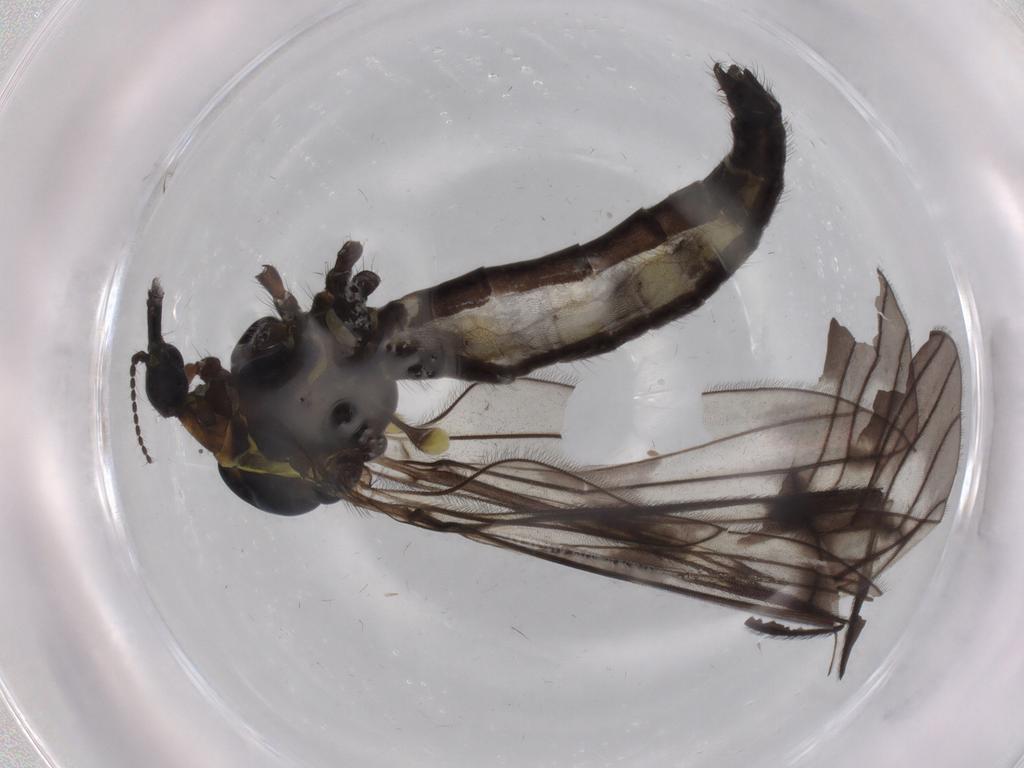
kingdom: Animalia
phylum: Arthropoda
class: Insecta
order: Diptera
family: Limoniidae
